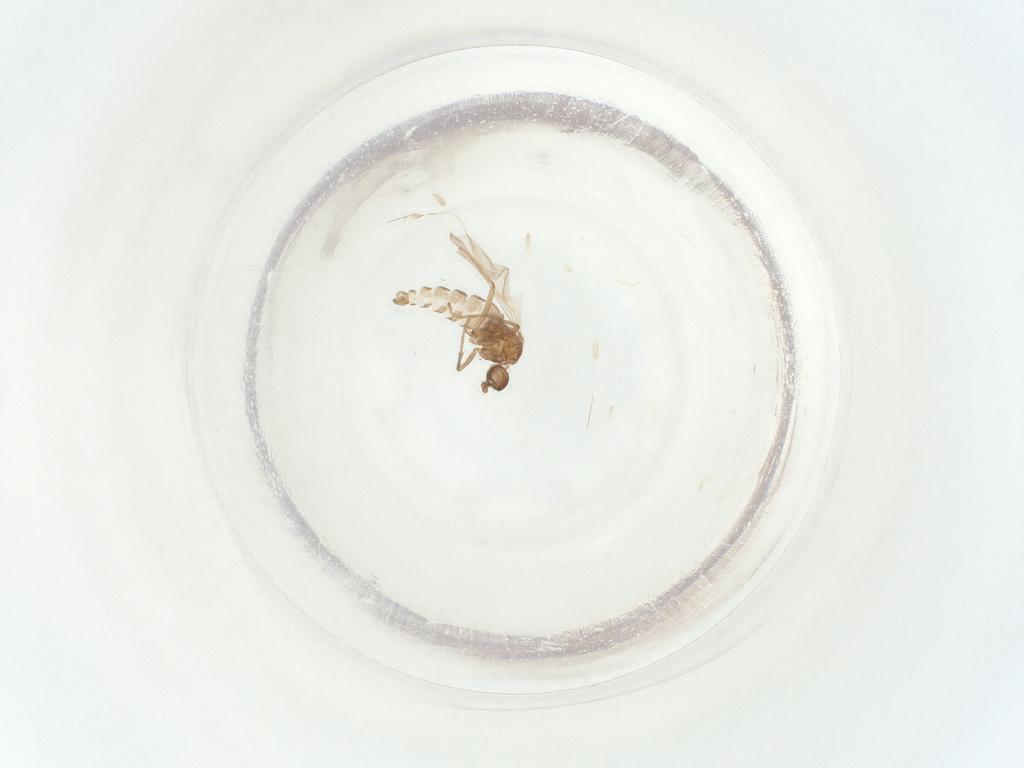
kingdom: Animalia
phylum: Arthropoda
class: Insecta
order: Diptera
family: Sciaridae
